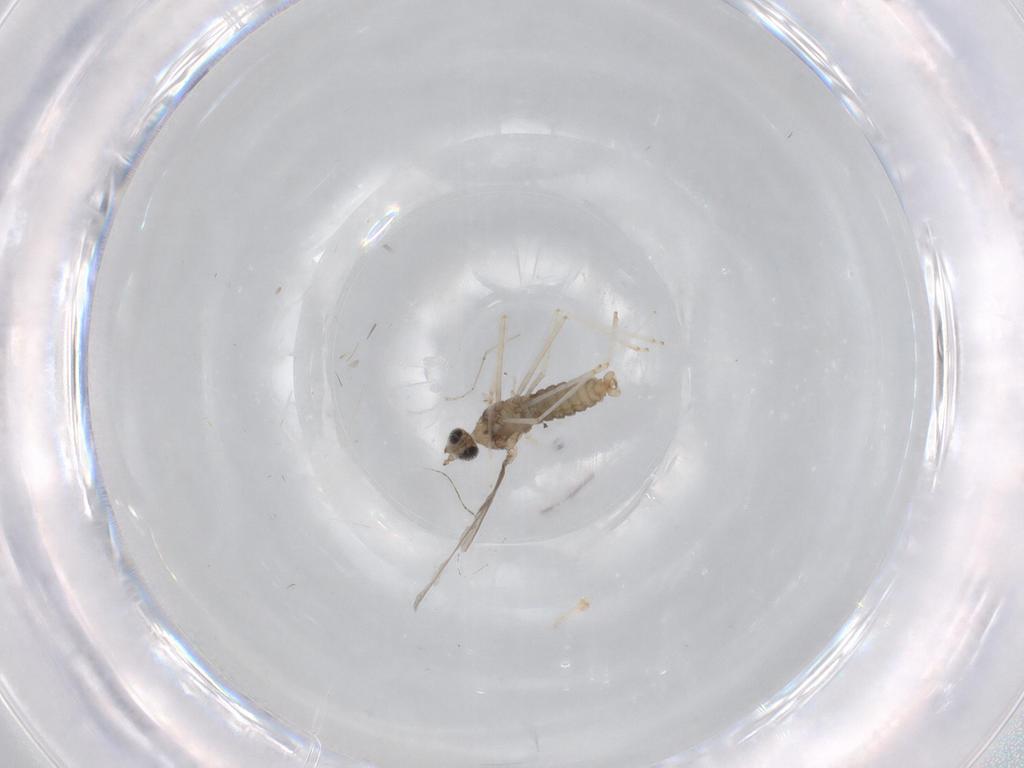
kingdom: Animalia
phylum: Arthropoda
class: Insecta
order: Diptera
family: Cecidomyiidae
